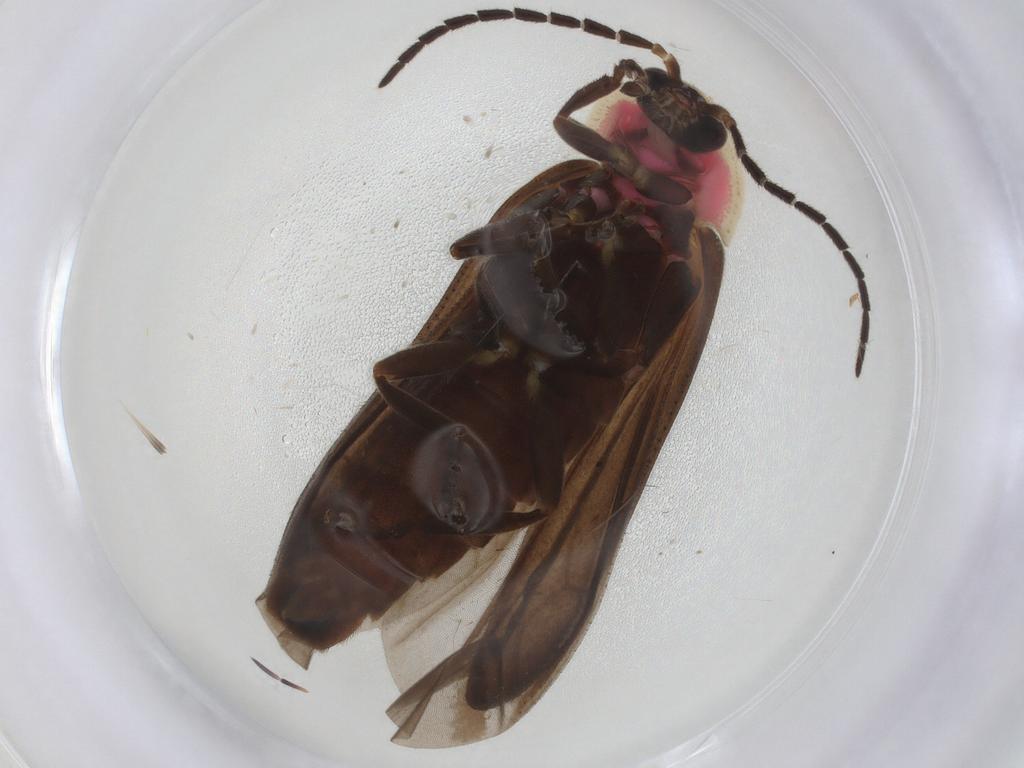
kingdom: Animalia
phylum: Arthropoda
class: Insecta
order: Coleoptera
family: Lampyridae
